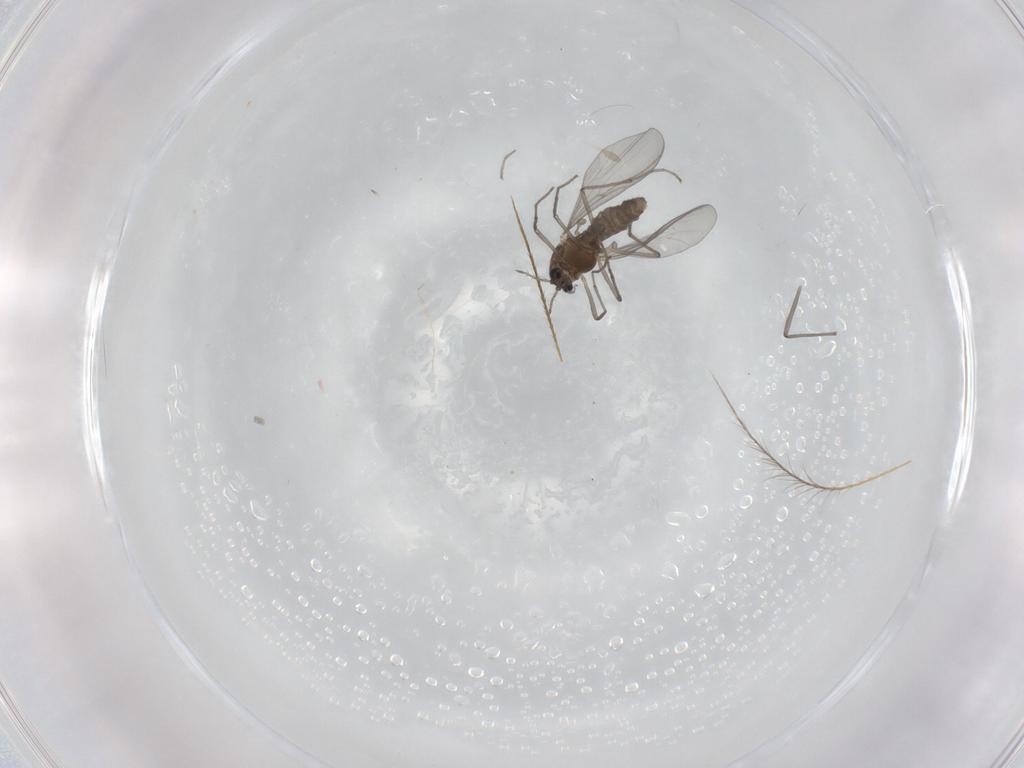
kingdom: Animalia
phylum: Arthropoda
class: Insecta
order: Diptera
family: Chironomidae
